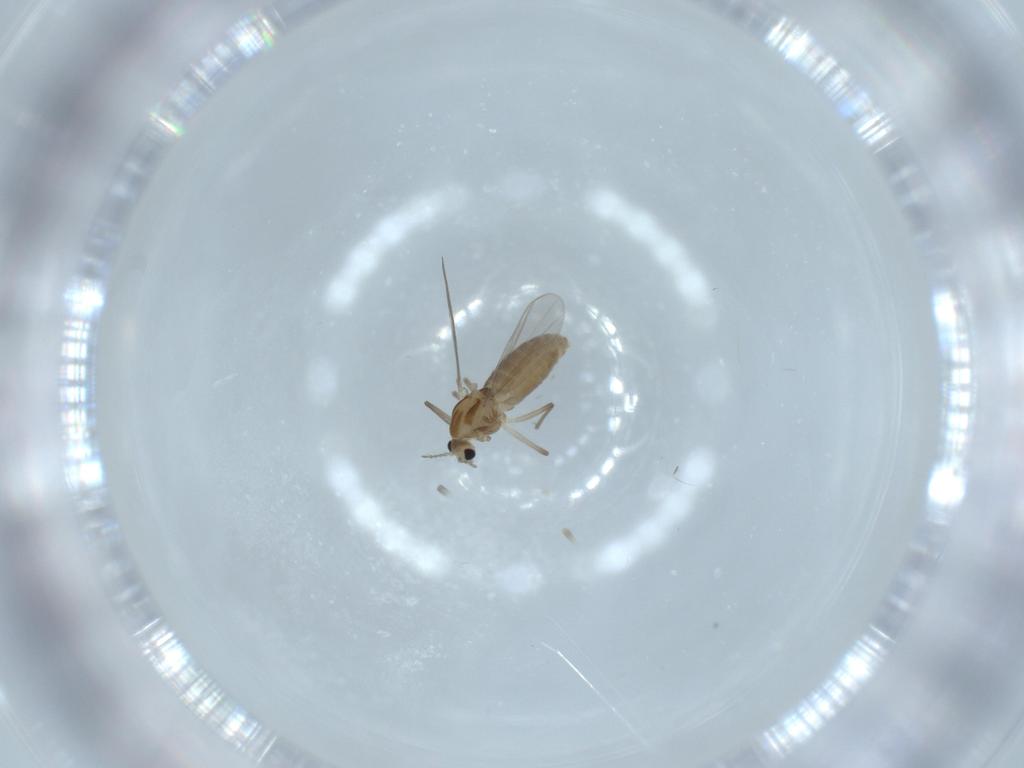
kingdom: Animalia
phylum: Arthropoda
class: Insecta
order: Diptera
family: Chironomidae
